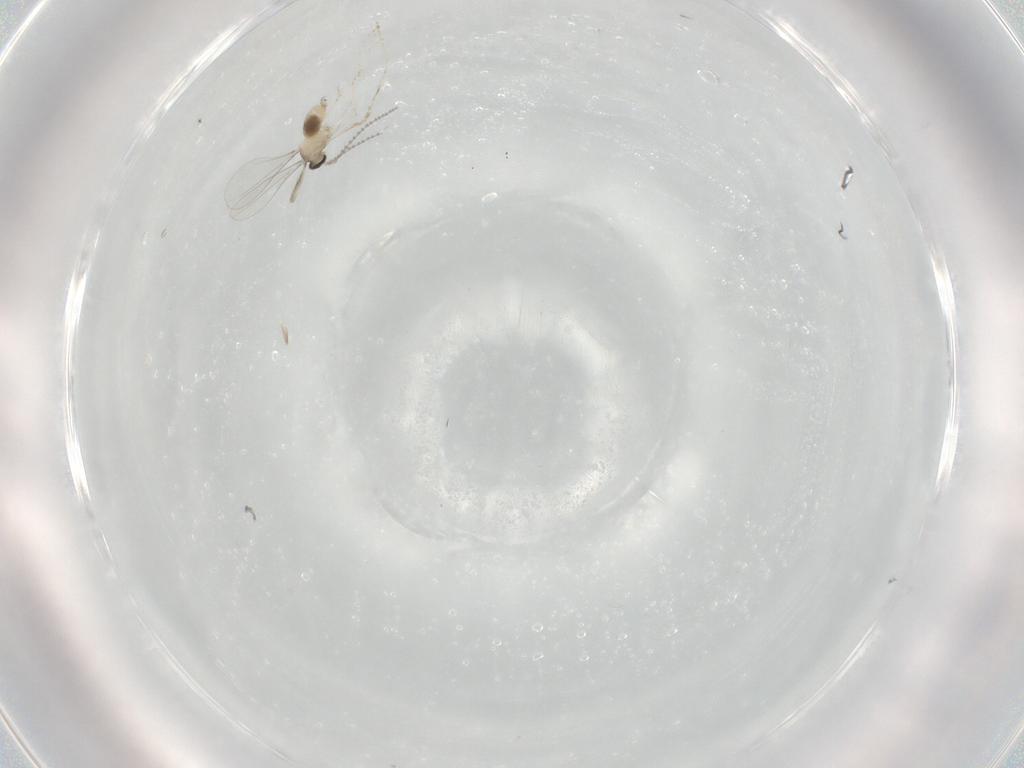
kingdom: Animalia
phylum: Arthropoda
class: Insecta
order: Diptera
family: Cecidomyiidae
